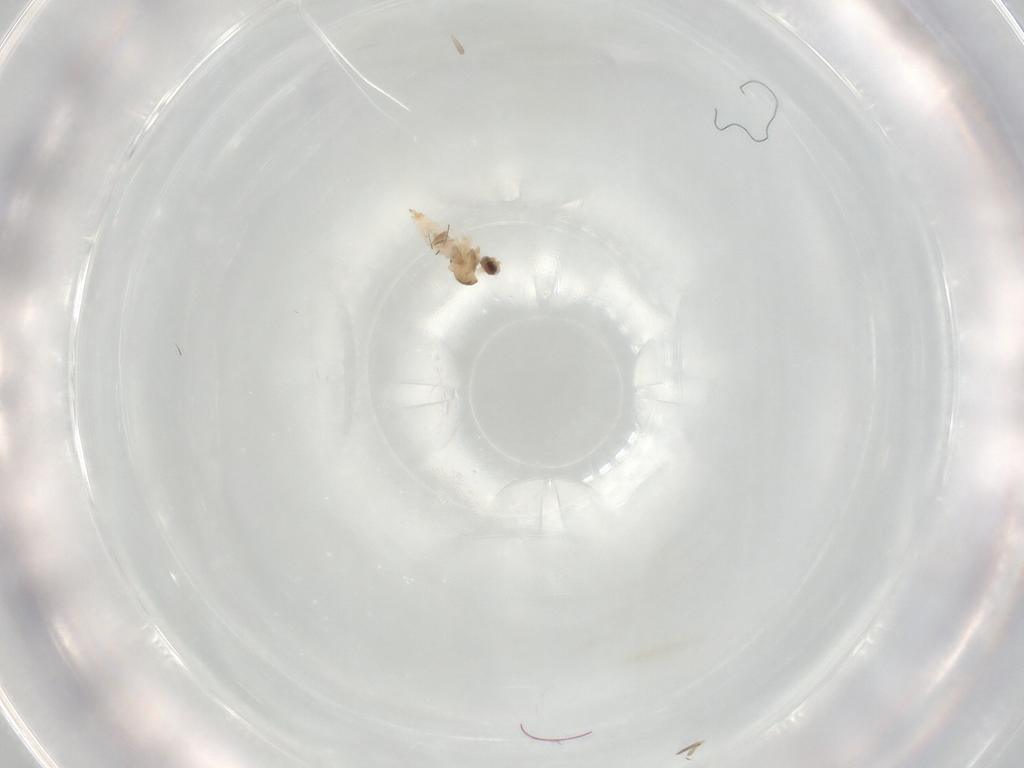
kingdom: Animalia
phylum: Arthropoda
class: Insecta
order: Diptera
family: Cecidomyiidae
